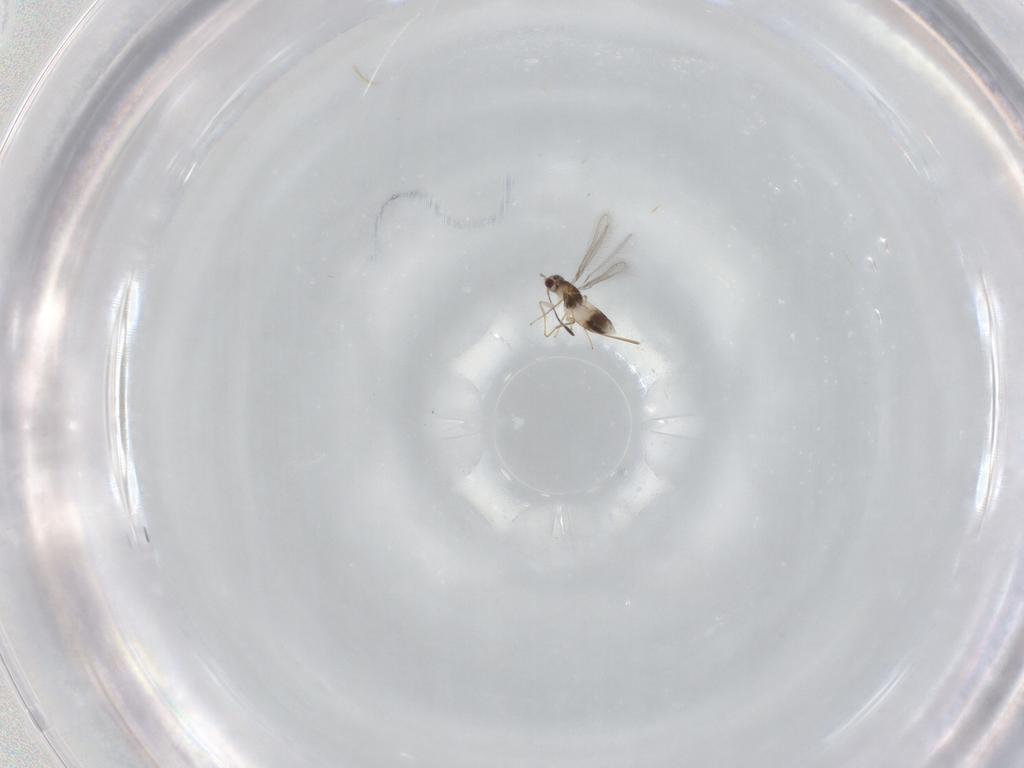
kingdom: Animalia
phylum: Arthropoda
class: Insecta
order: Hymenoptera
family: Mymaridae
